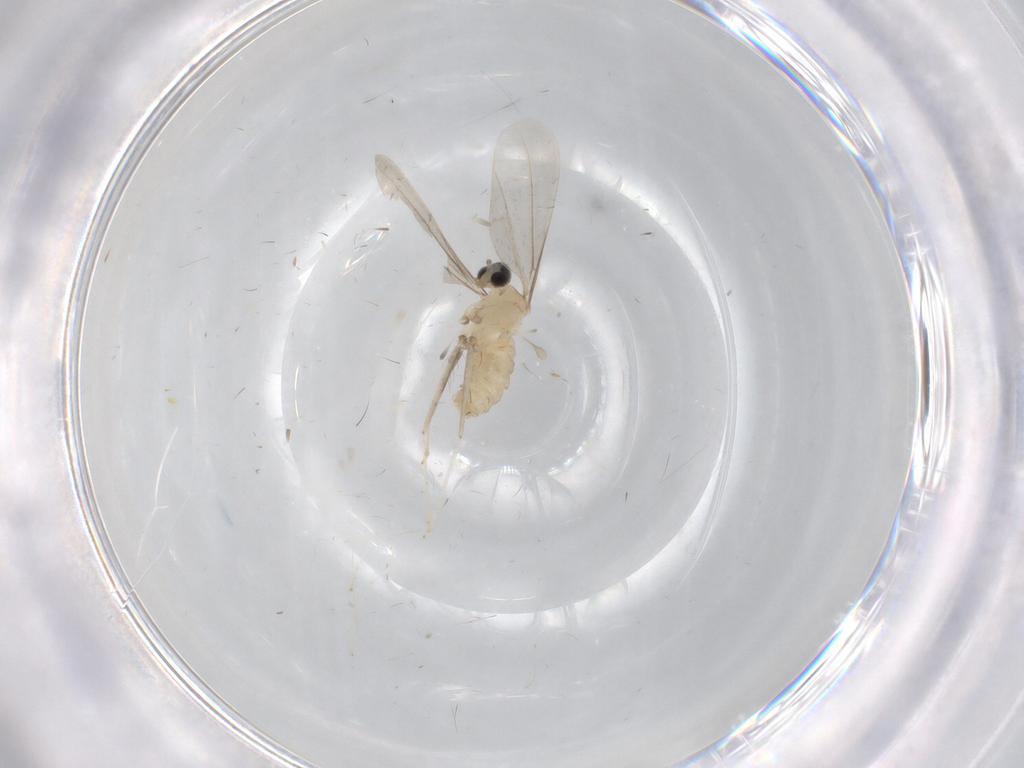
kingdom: Animalia
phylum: Arthropoda
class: Insecta
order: Diptera
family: Cecidomyiidae
